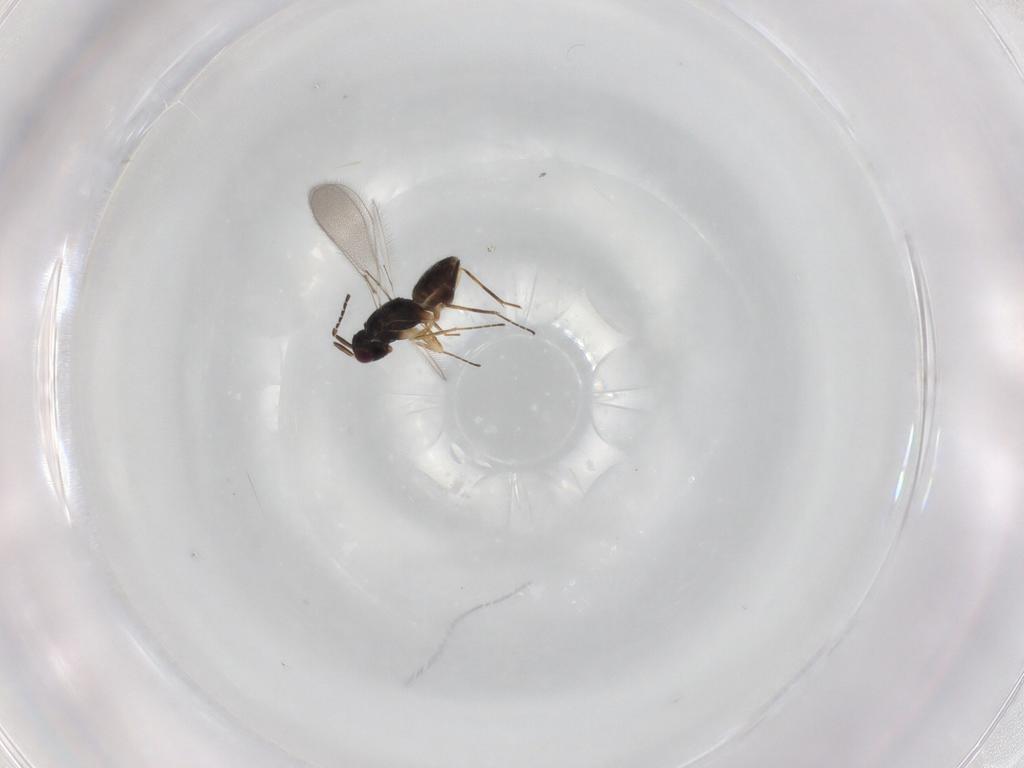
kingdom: Animalia
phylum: Arthropoda
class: Insecta
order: Hymenoptera
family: Mymaridae
